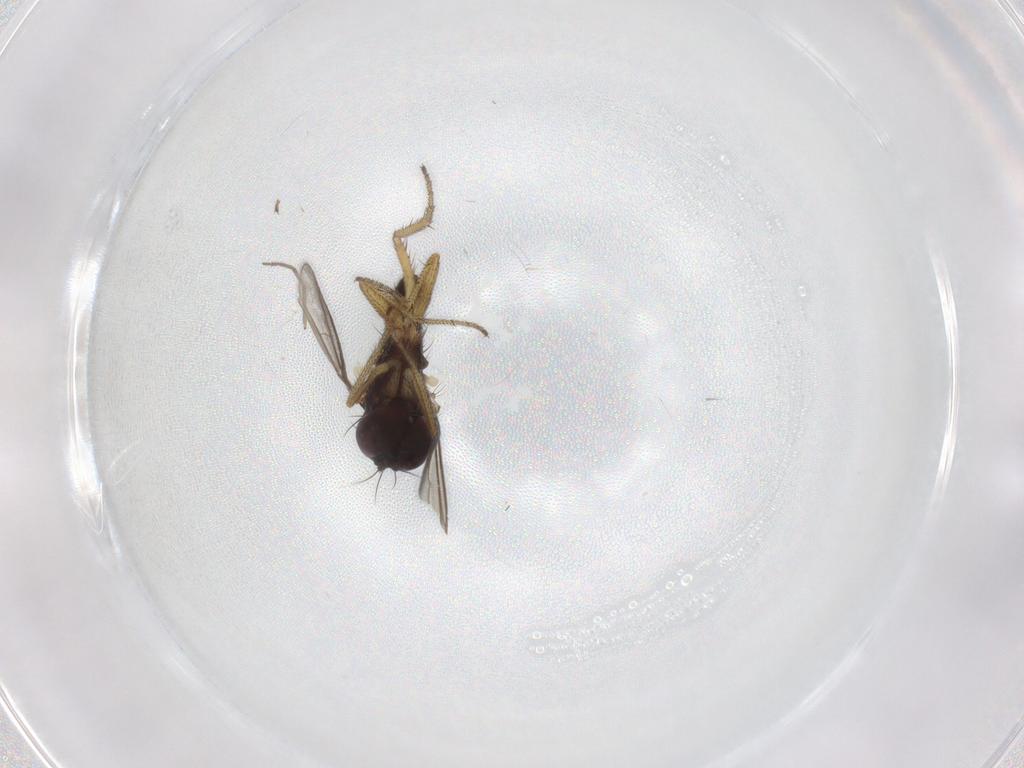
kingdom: Animalia
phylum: Arthropoda
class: Insecta
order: Diptera
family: Chironomidae
